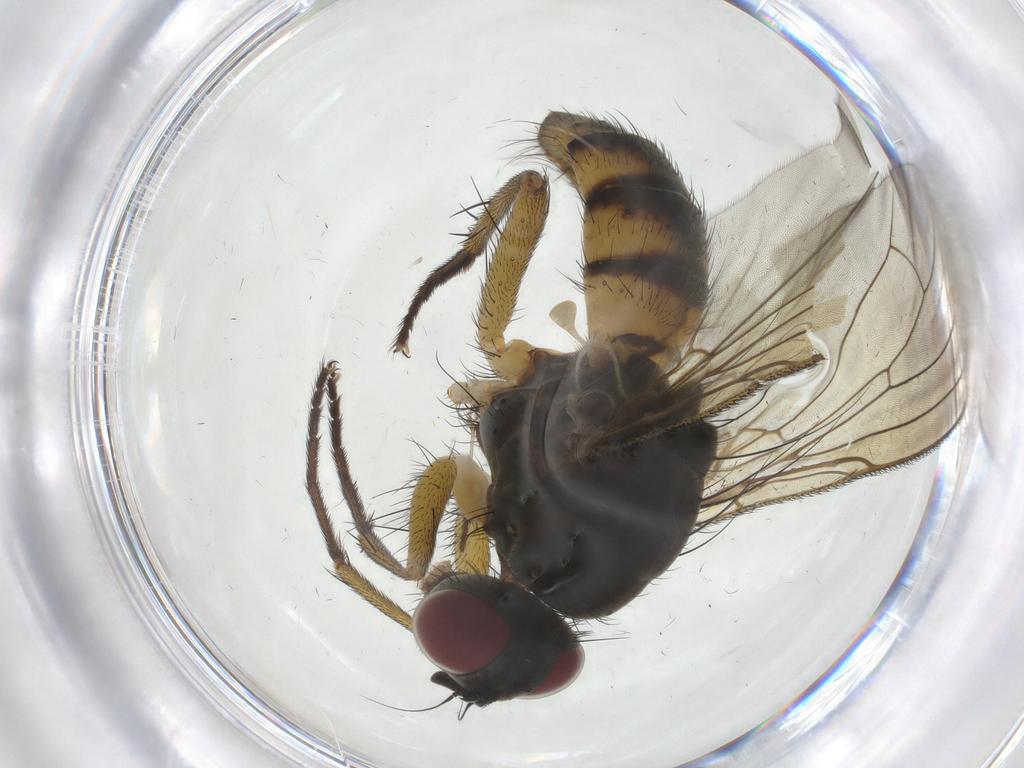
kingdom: Animalia
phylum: Arthropoda
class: Insecta
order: Diptera
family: Muscidae
